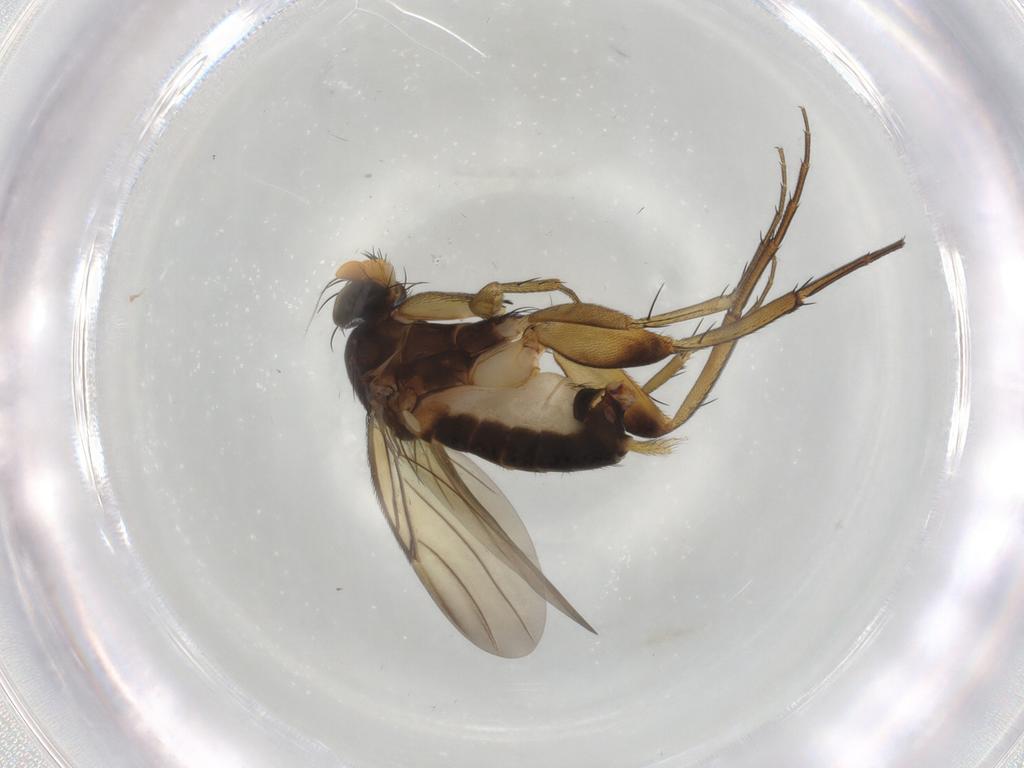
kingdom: Animalia
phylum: Arthropoda
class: Insecta
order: Diptera
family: Phoridae
